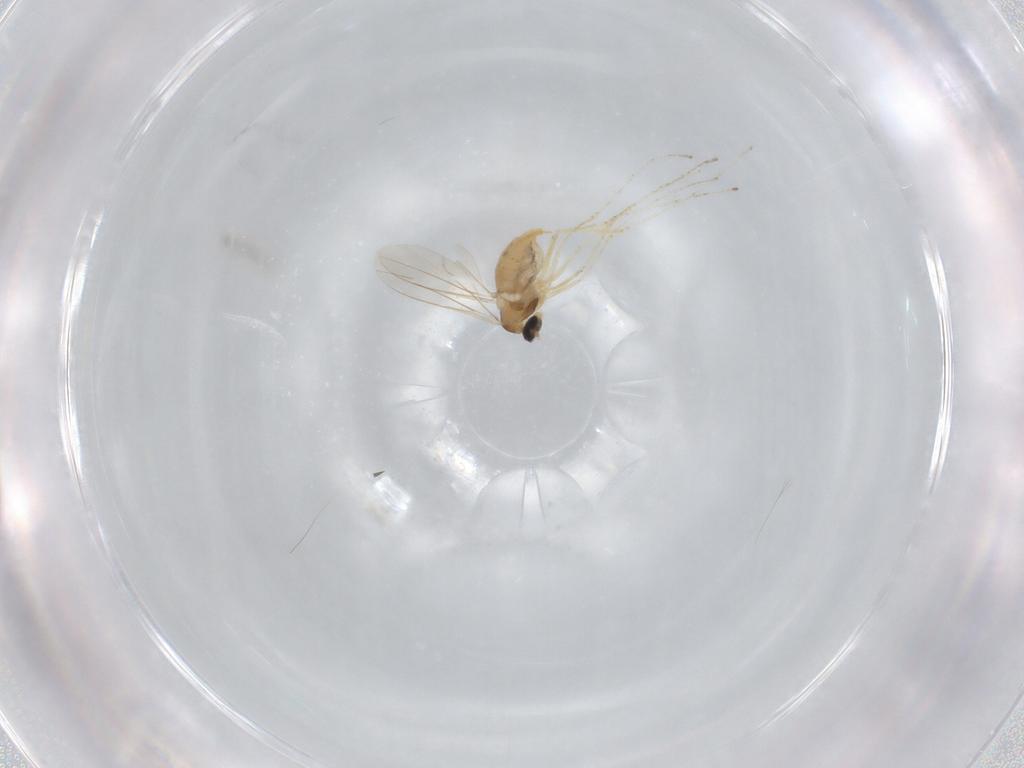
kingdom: Animalia
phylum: Arthropoda
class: Insecta
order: Diptera
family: Cecidomyiidae
